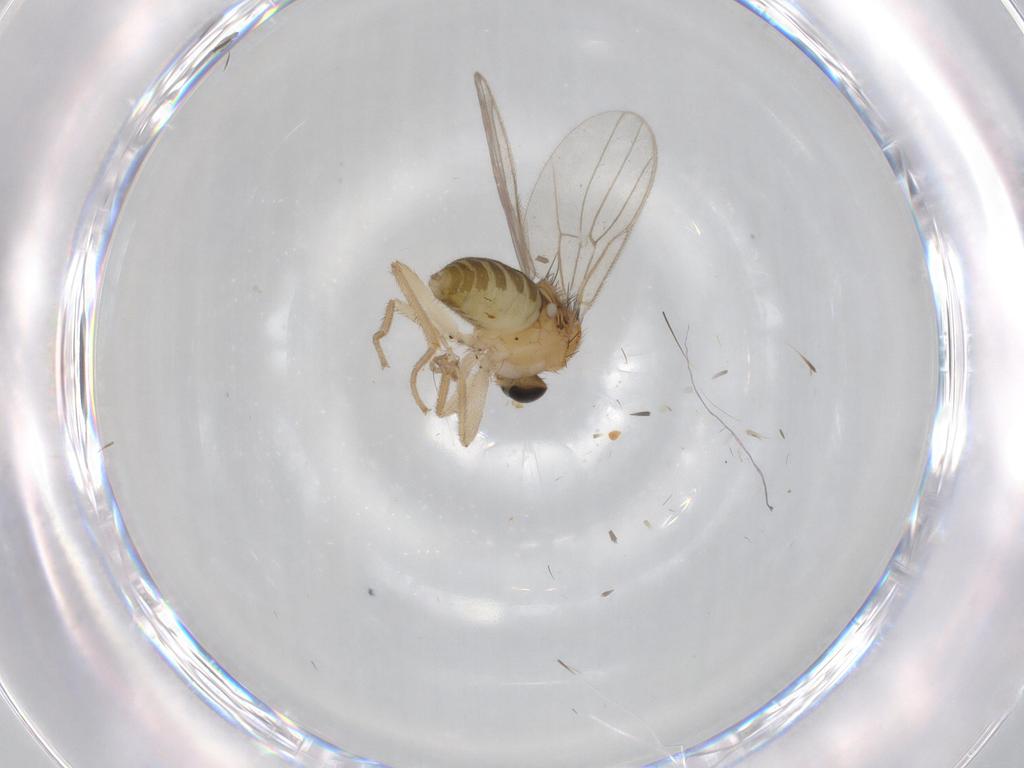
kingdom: Animalia
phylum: Arthropoda
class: Insecta
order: Diptera
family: Hybotidae
